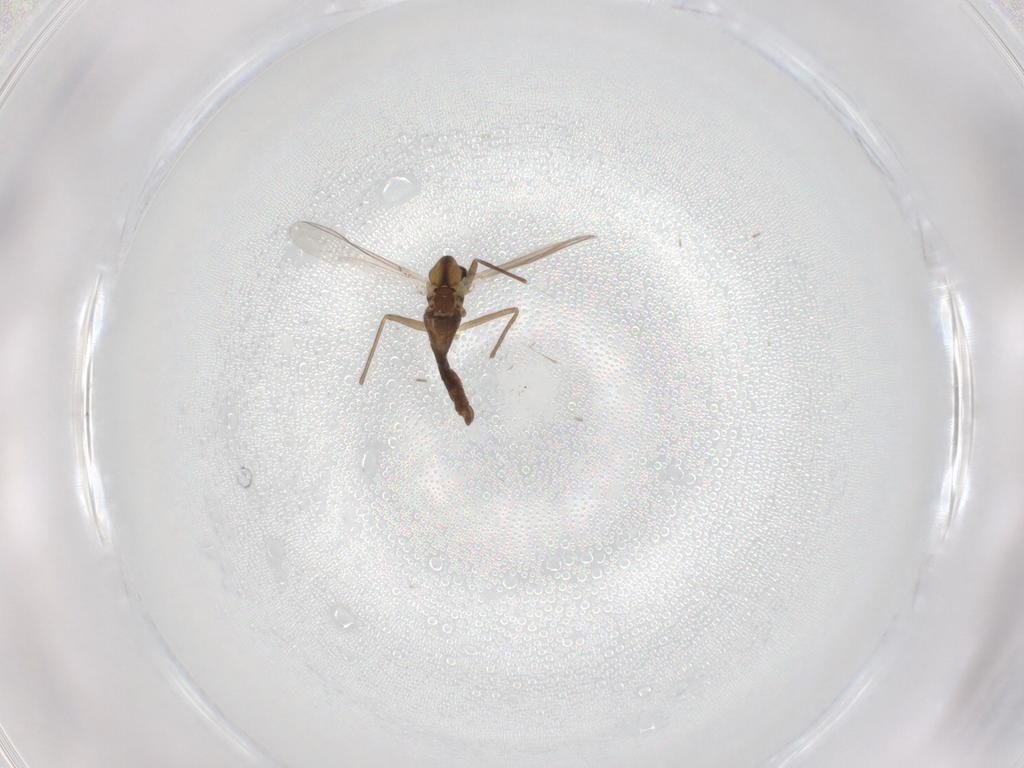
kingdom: Animalia
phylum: Arthropoda
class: Insecta
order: Diptera
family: Chironomidae
